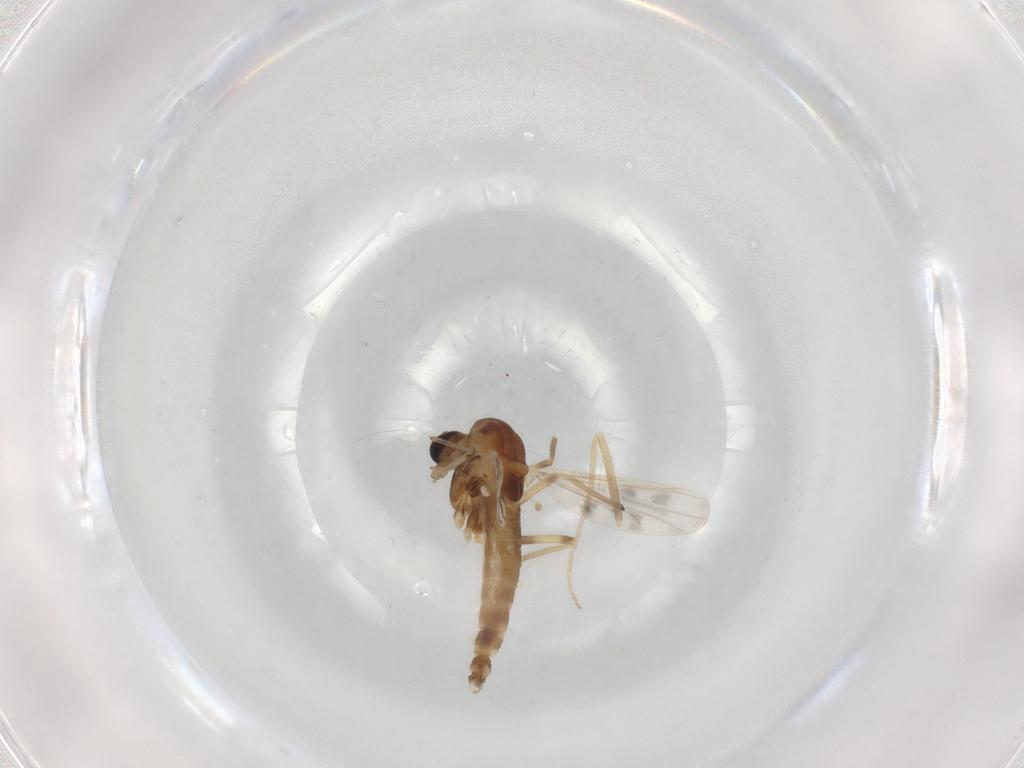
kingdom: Animalia
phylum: Arthropoda
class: Insecta
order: Diptera
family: Chironomidae
